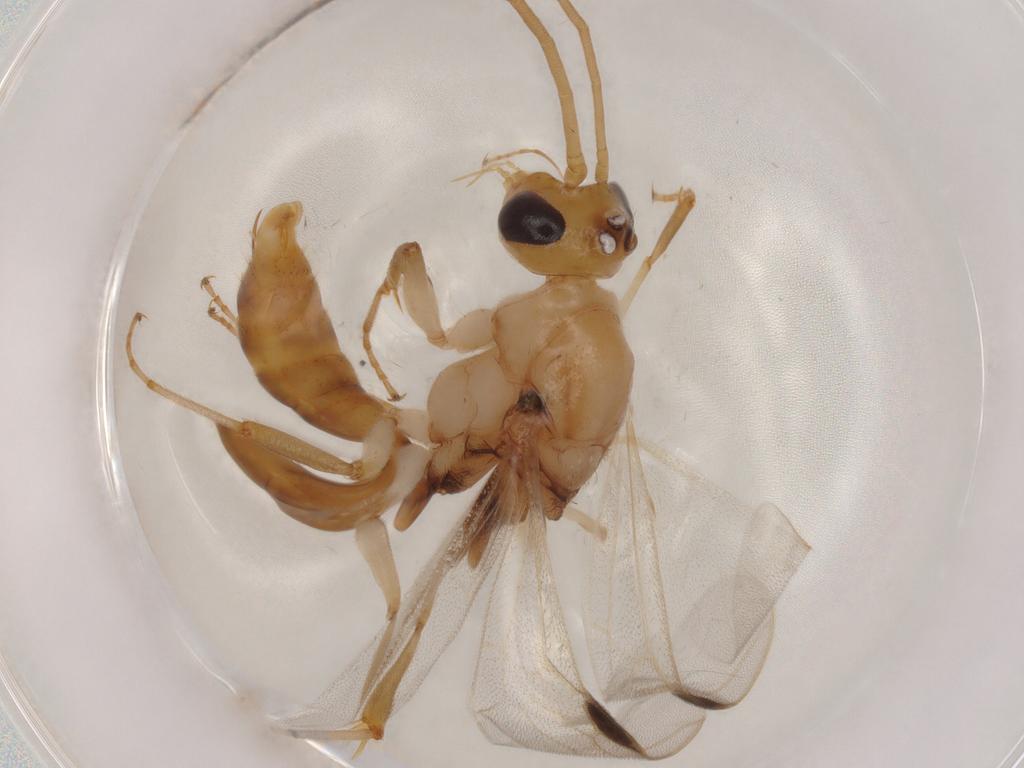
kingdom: Animalia
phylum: Arthropoda
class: Insecta
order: Hymenoptera
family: Formicidae
